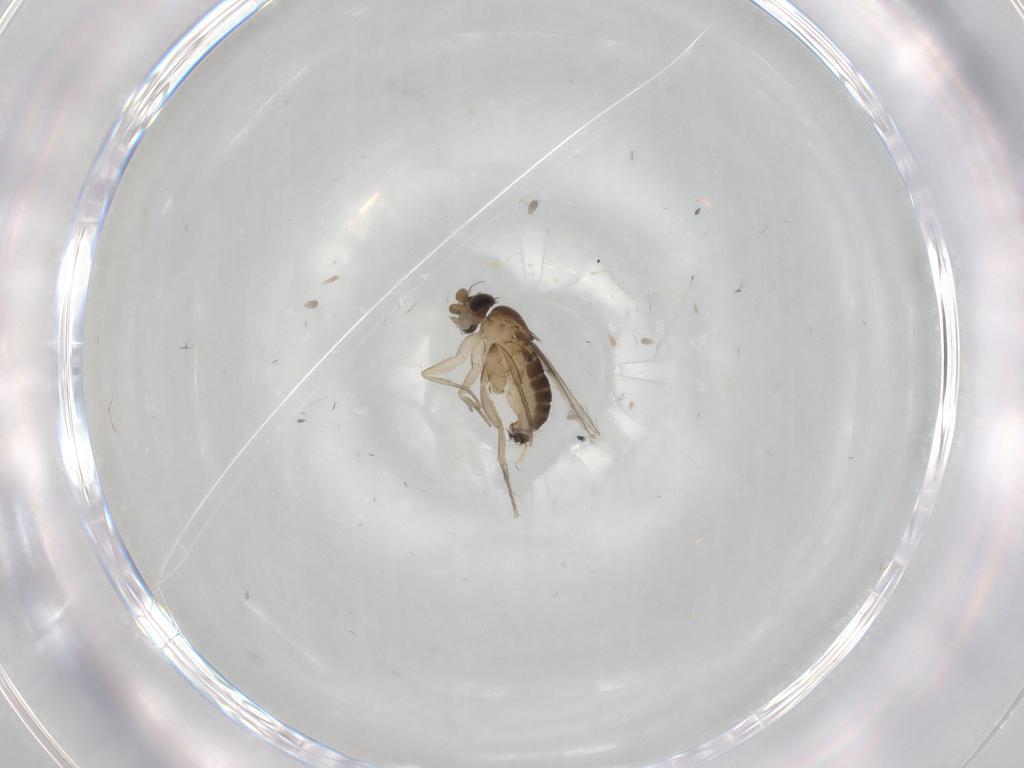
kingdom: Animalia
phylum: Arthropoda
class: Insecta
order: Diptera
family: Phoridae
